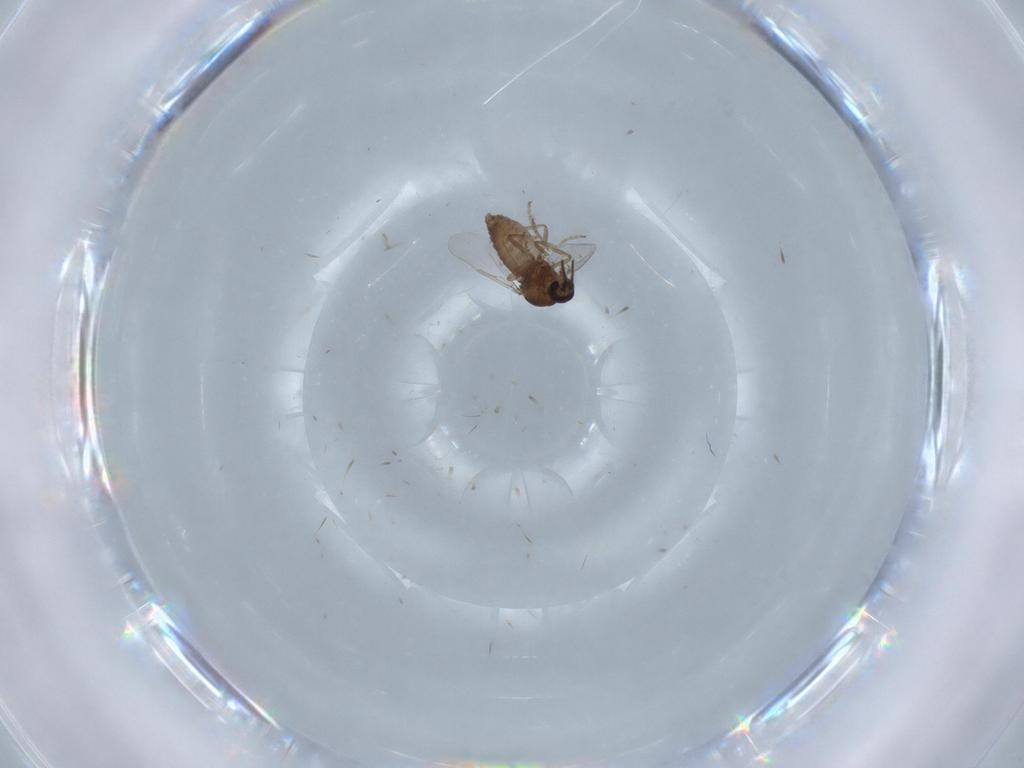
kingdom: Animalia
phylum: Arthropoda
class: Insecta
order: Diptera
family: Ceratopogonidae
